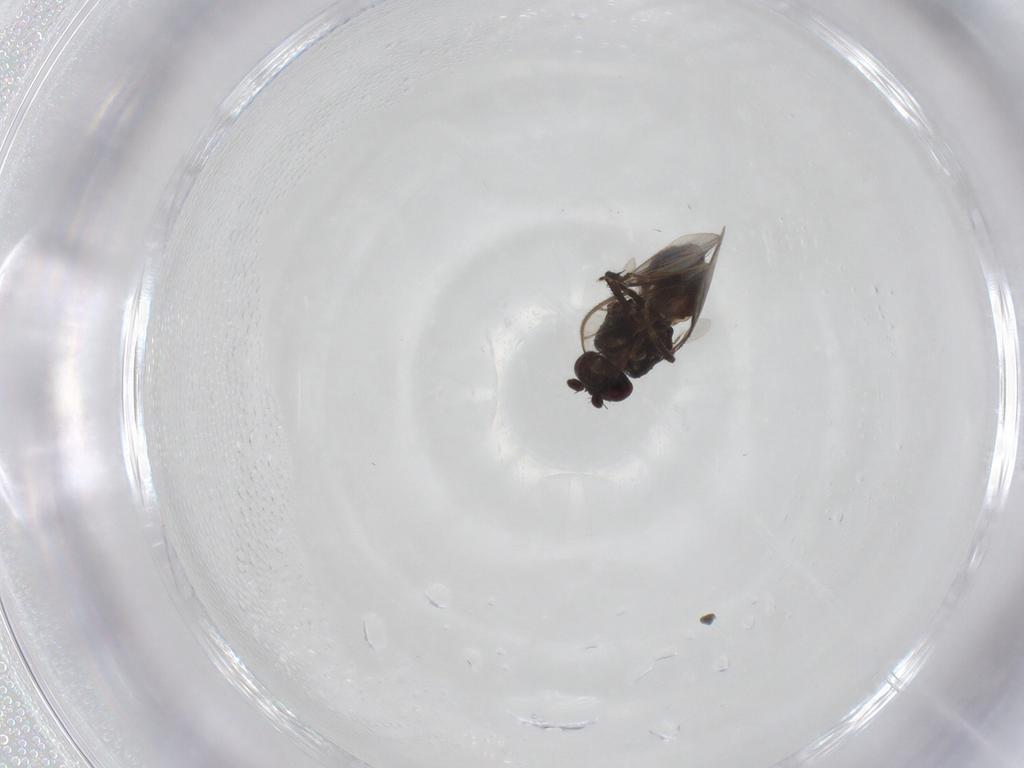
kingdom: Animalia
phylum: Arthropoda
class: Insecta
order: Diptera
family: Sphaeroceridae
